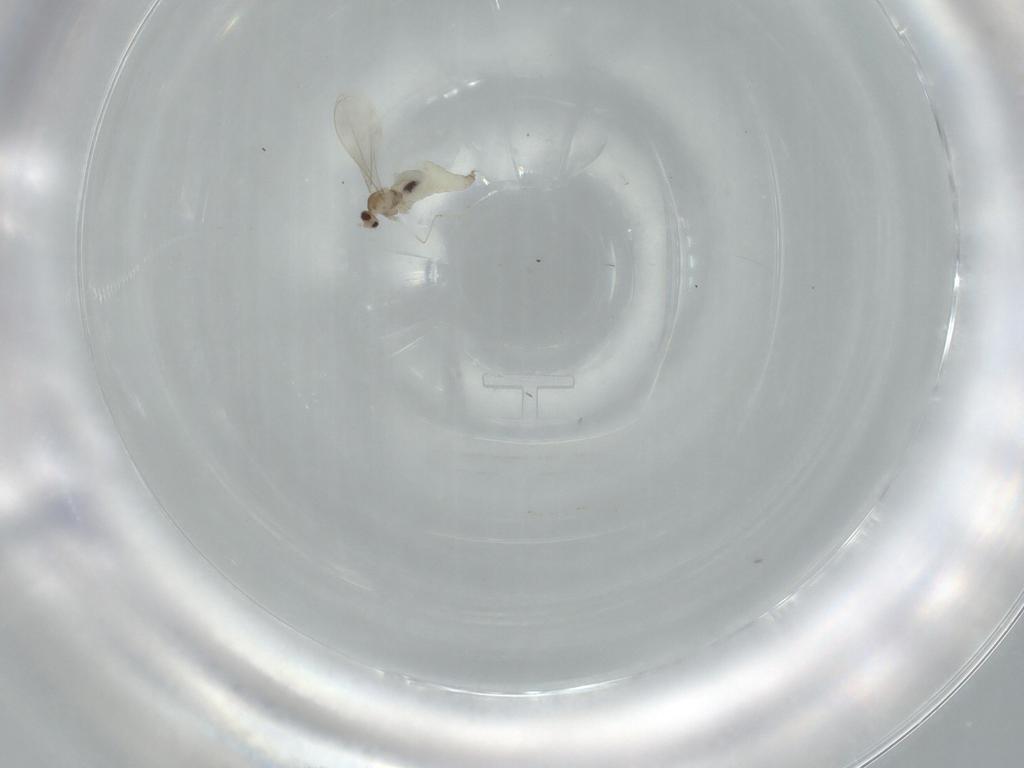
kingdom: Animalia
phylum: Arthropoda
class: Insecta
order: Diptera
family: Cecidomyiidae
